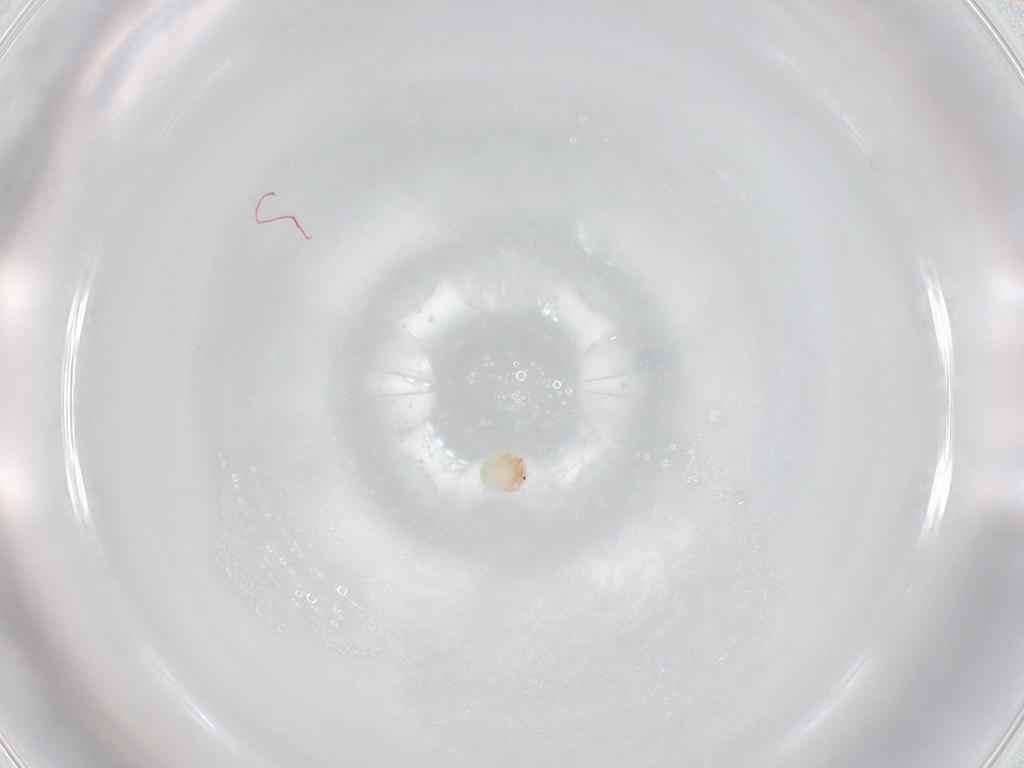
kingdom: Animalia
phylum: Arthropoda
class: Arachnida
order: Trombidiformes
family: Arrenuridae
